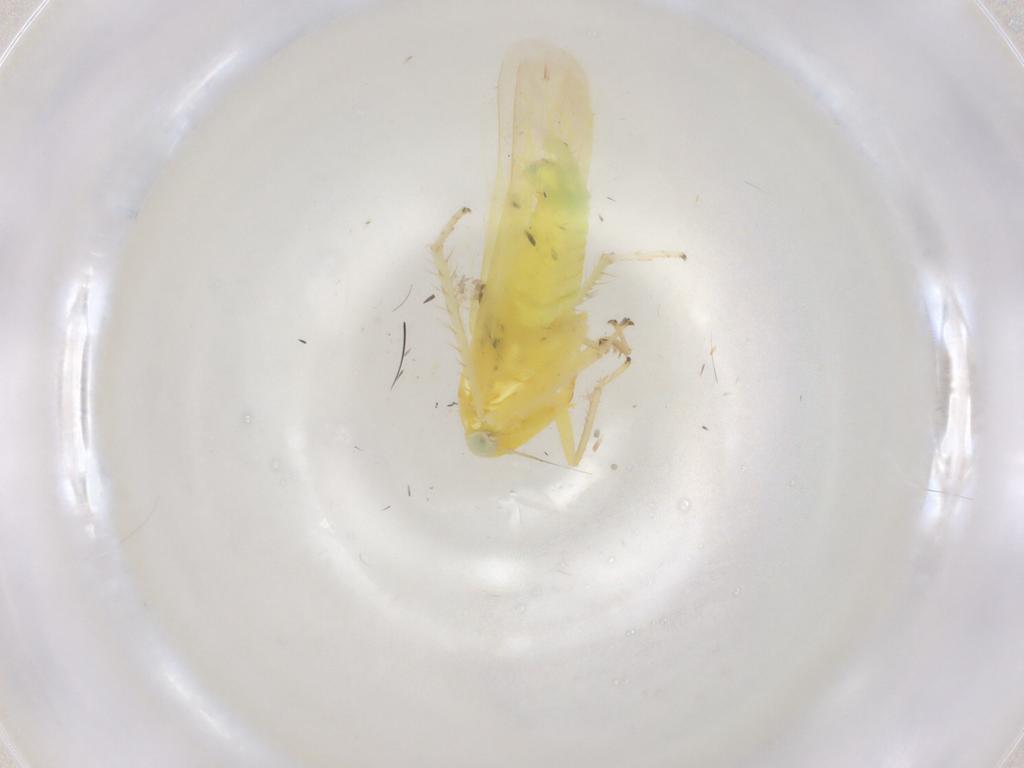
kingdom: Animalia
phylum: Arthropoda
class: Insecta
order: Hemiptera
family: Cicadellidae
